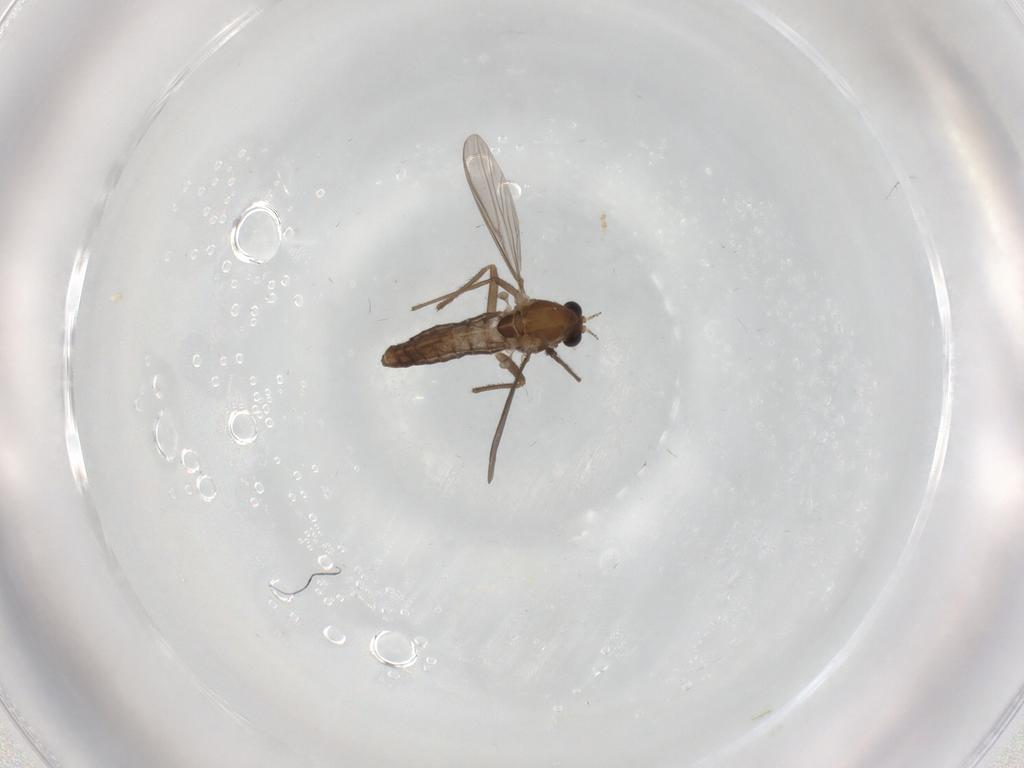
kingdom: Animalia
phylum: Arthropoda
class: Insecta
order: Diptera
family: Chironomidae
